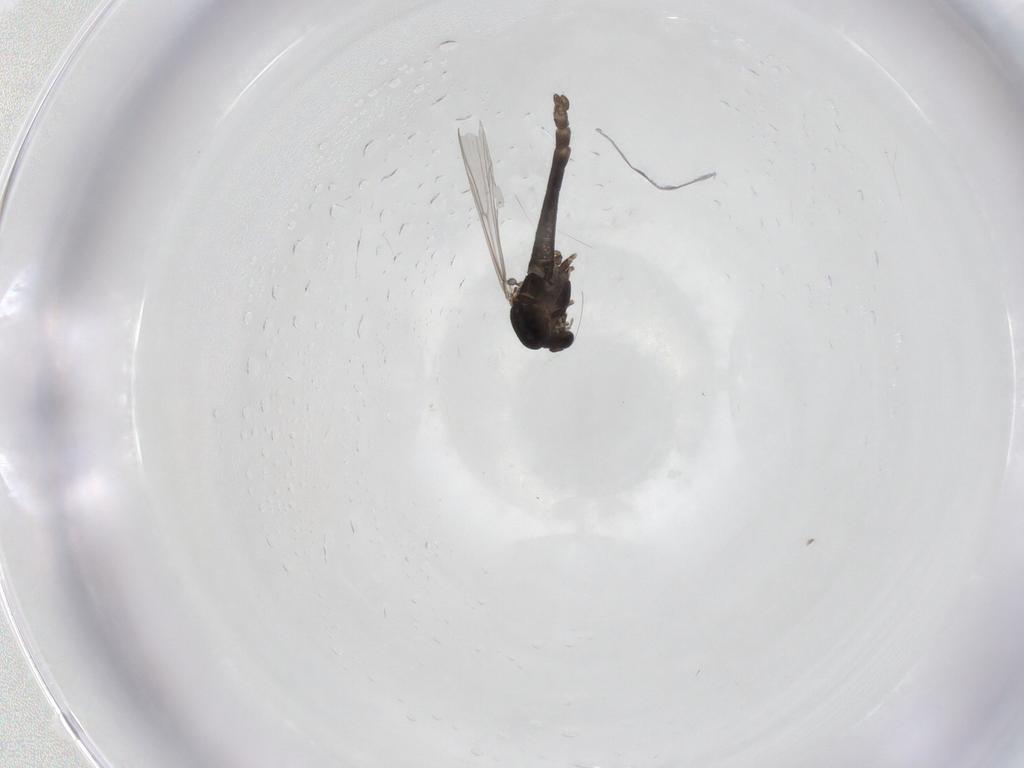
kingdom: Animalia
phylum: Arthropoda
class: Insecta
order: Diptera
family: Chironomidae
